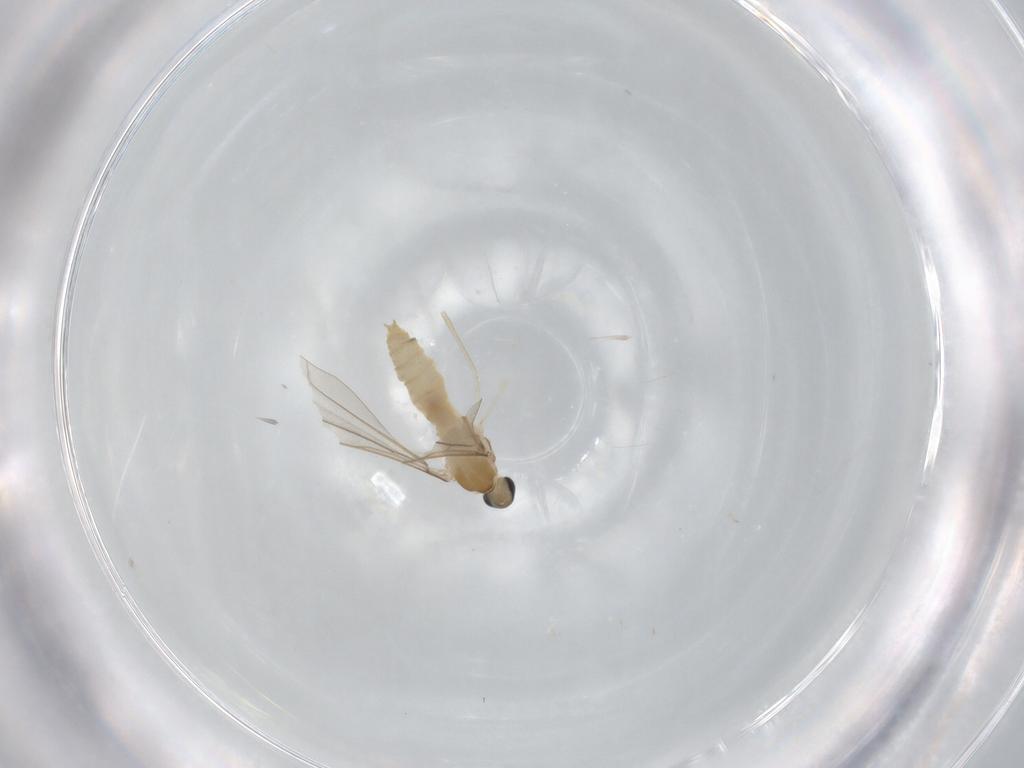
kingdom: Animalia
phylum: Arthropoda
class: Insecta
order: Diptera
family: Cecidomyiidae
